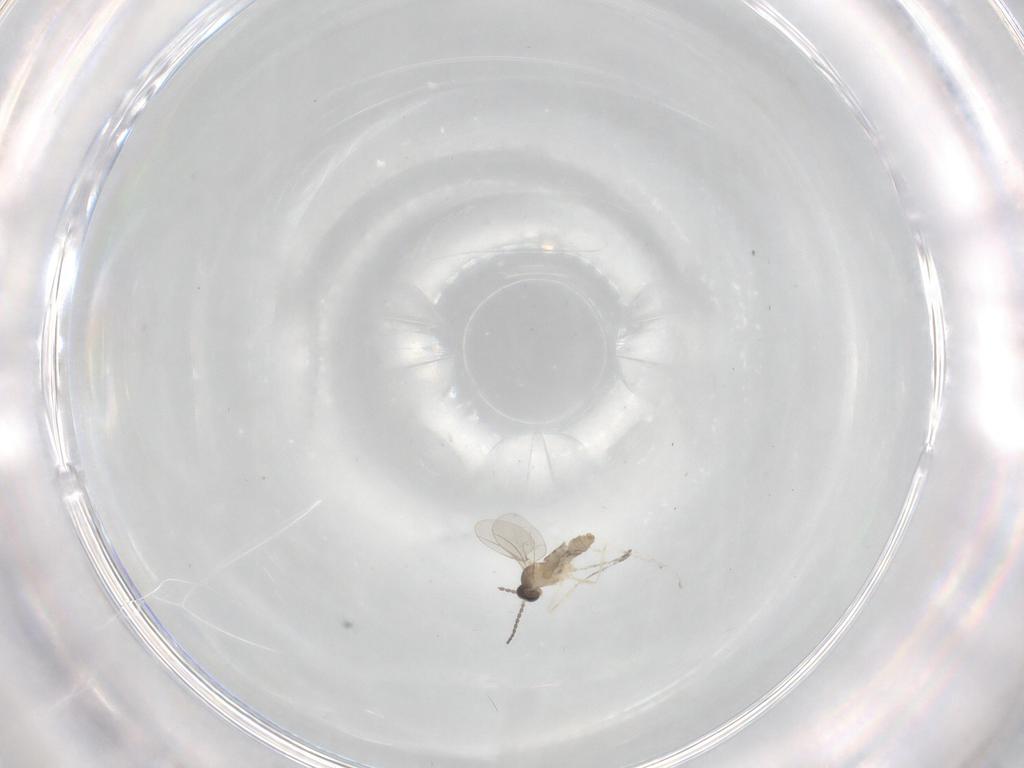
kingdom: Animalia
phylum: Arthropoda
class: Insecta
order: Diptera
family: Cecidomyiidae
